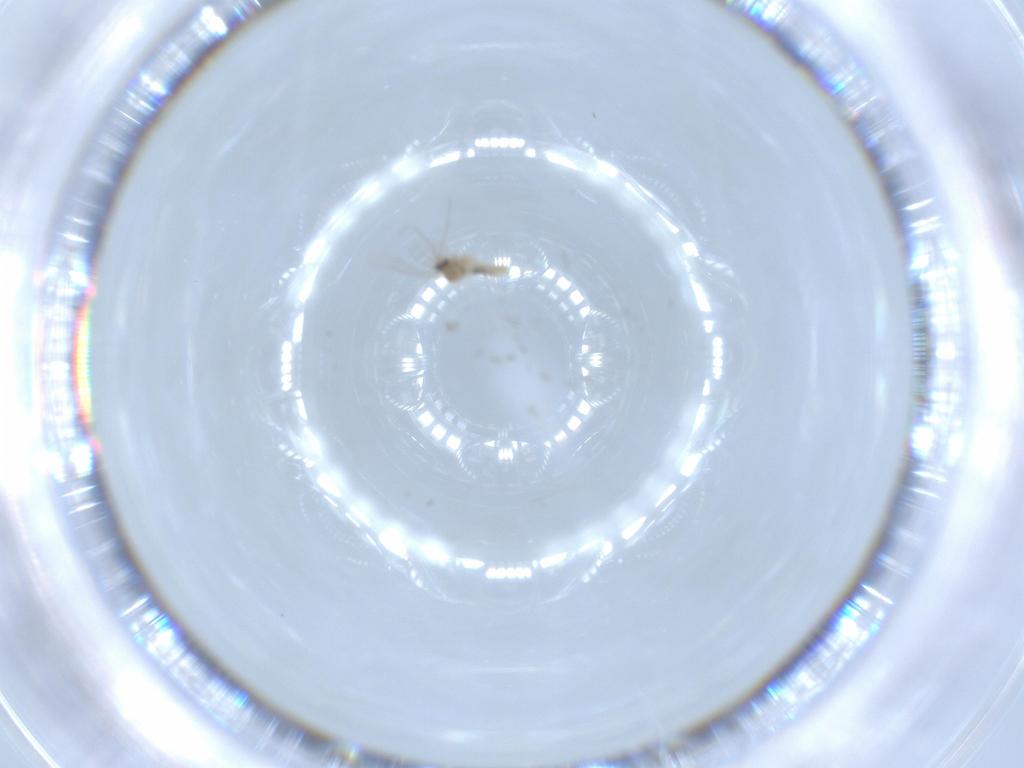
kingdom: Animalia
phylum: Arthropoda
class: Insecta
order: Diptera
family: Cecidomyiidae
